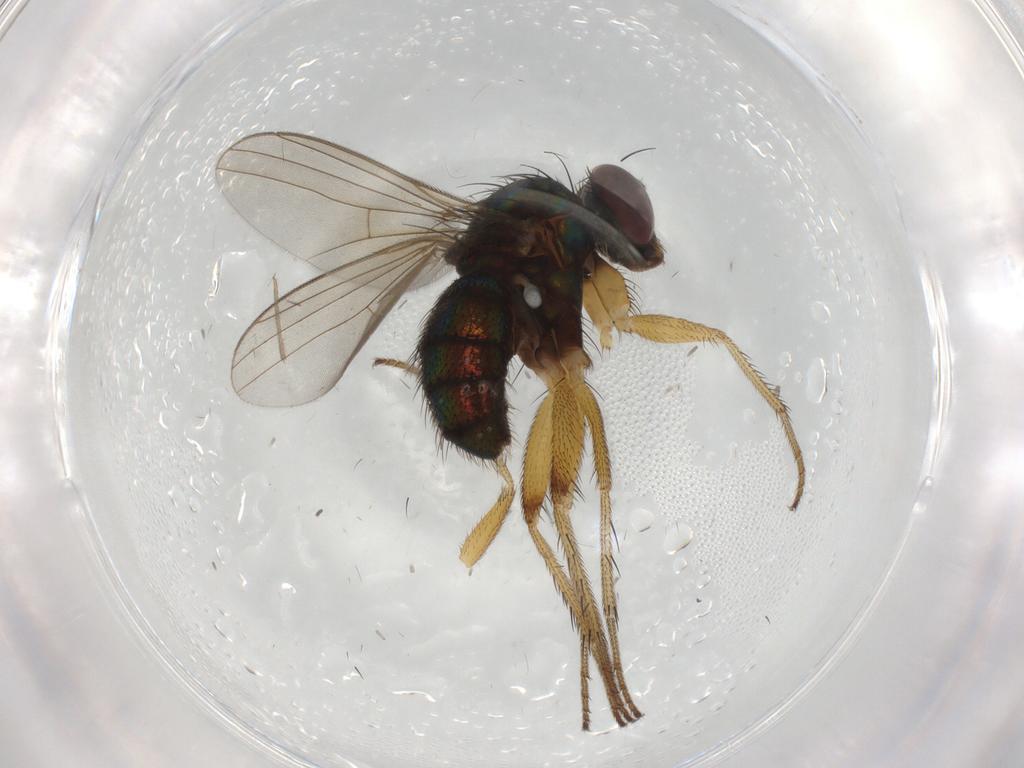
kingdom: Animalia
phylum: Arthropoda
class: Insecta
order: Diptera
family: Dolichopodidae
